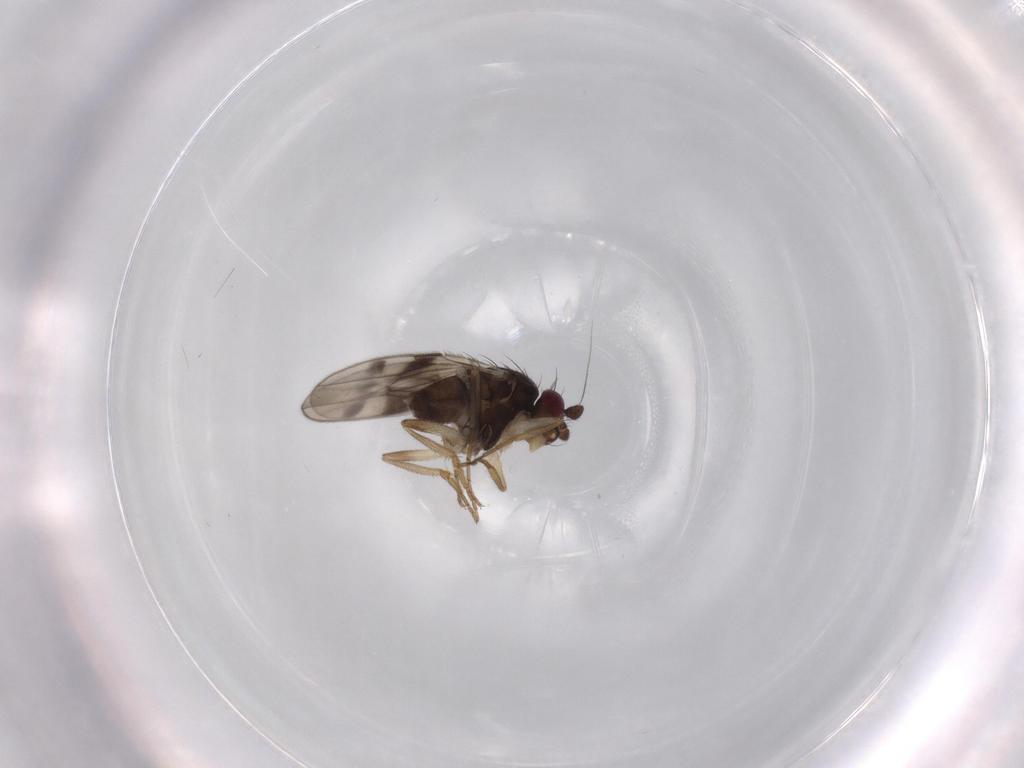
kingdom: Animalia
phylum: Arthropoda
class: Insecta
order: Diptera
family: Sphaeroceridae
